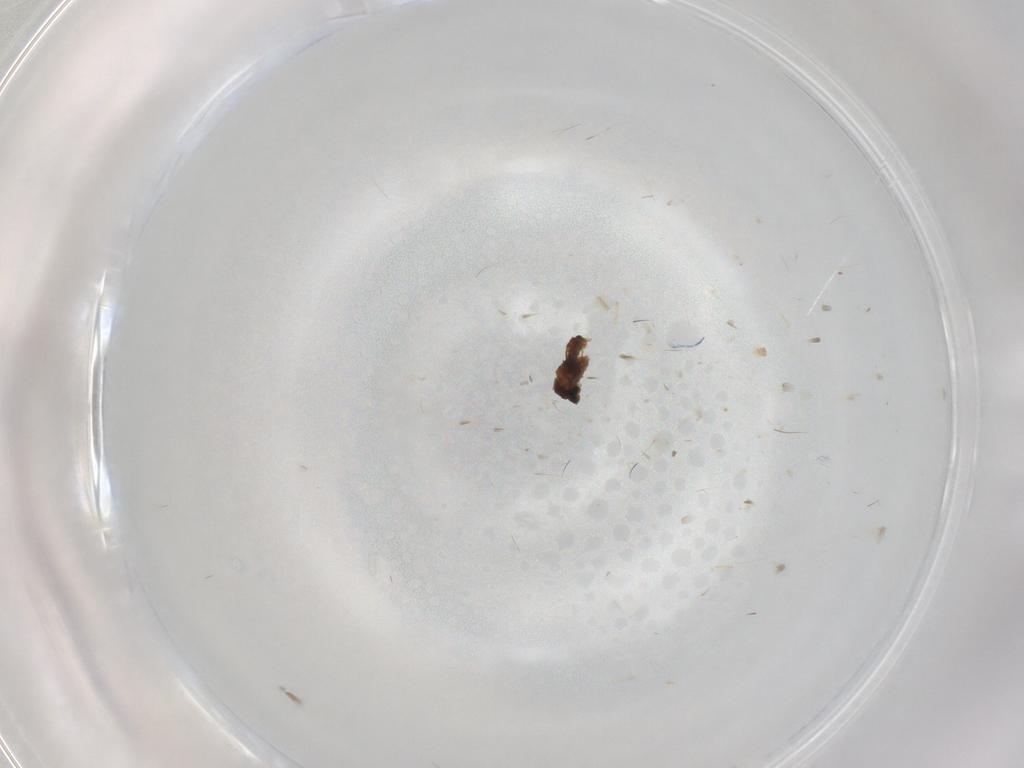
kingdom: Animalia
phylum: Arthropoda
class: Insecta
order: Diptera
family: Cecidomyiidae
